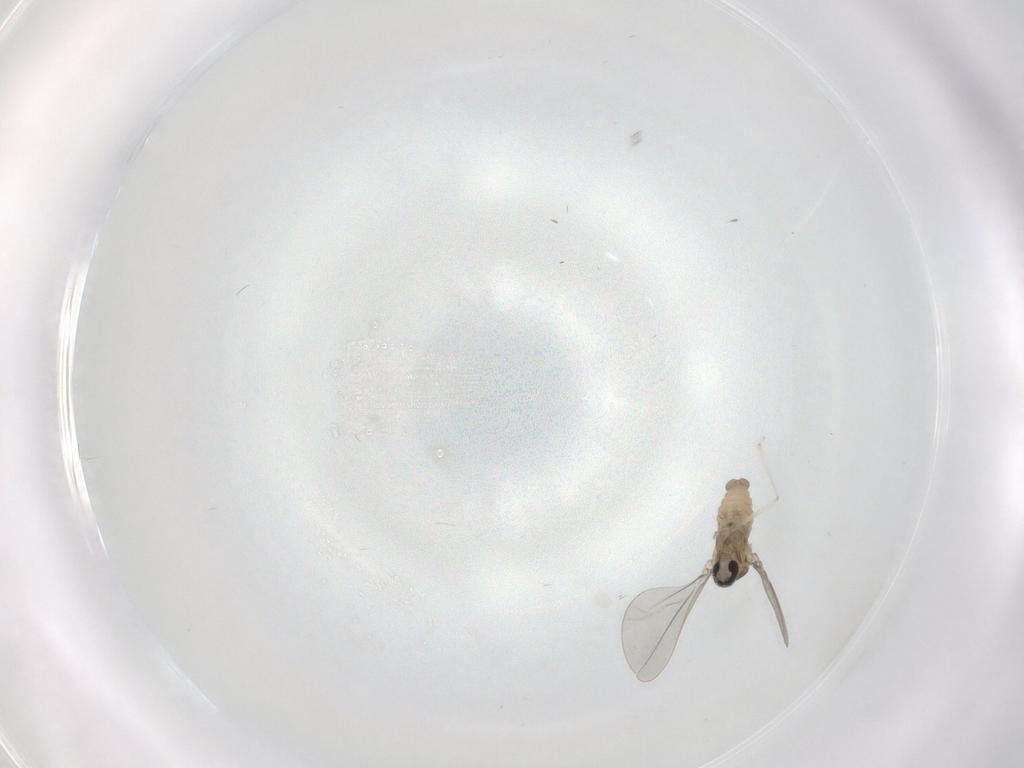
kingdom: Animalia
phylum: Arthropoda
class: Insecta
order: Diptera
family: Cecidomyiidae
